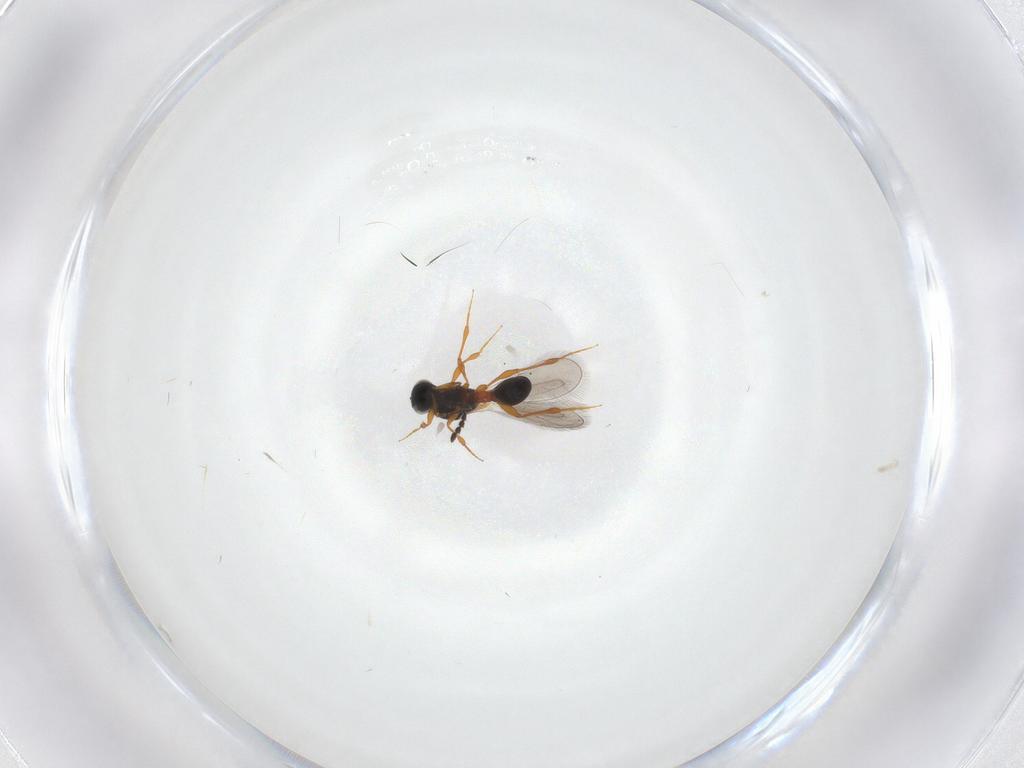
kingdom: Animalia
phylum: Arthropoda
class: Insecta
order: Hymenoptera
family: Platygastridae
